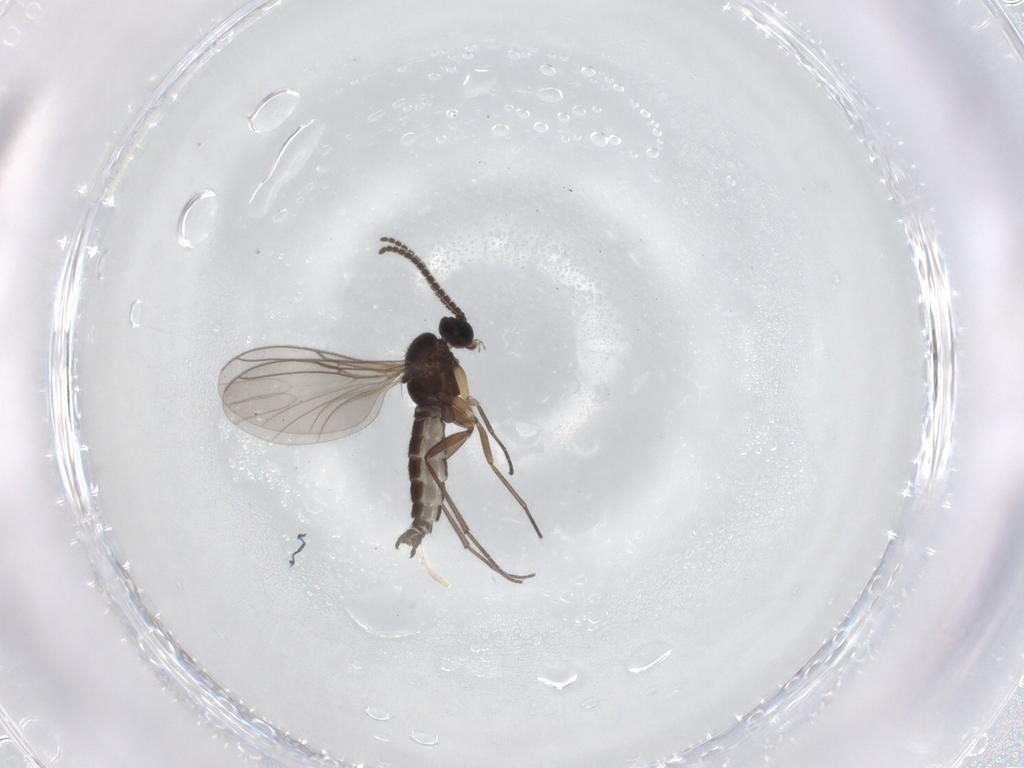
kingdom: Animalia
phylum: Arthropoda
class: Insecta
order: Diptera
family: Sciaridae
